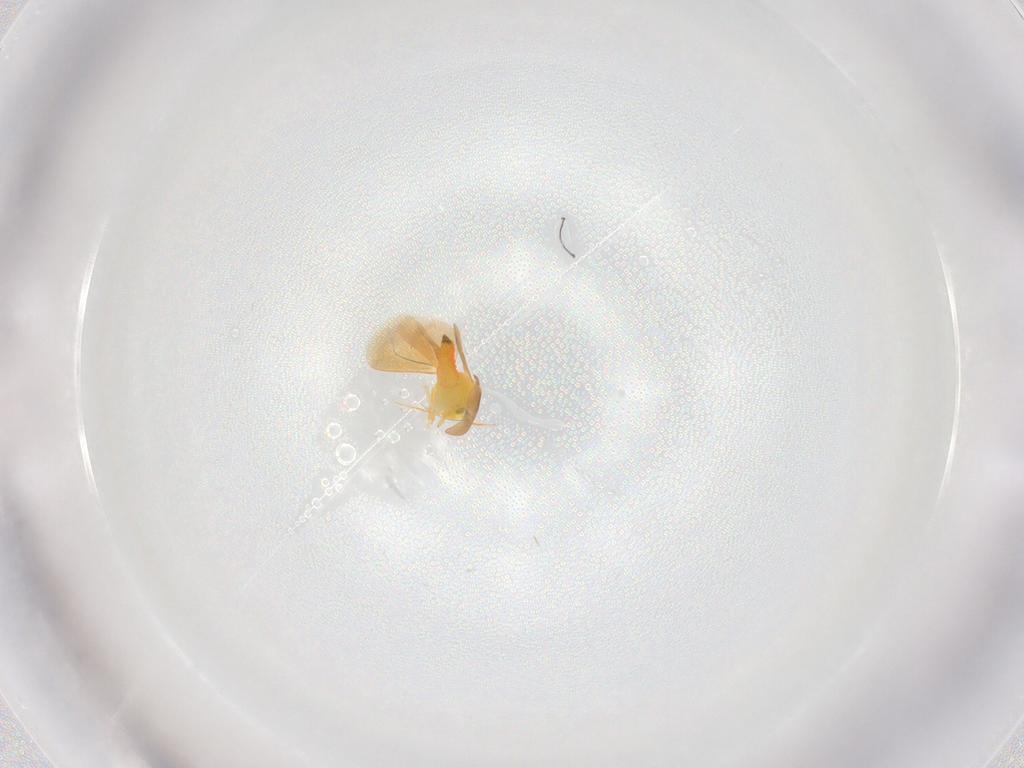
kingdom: Animalia
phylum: Arthropoda
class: Insecta
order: Hemiptera
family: Aleyrodidae
